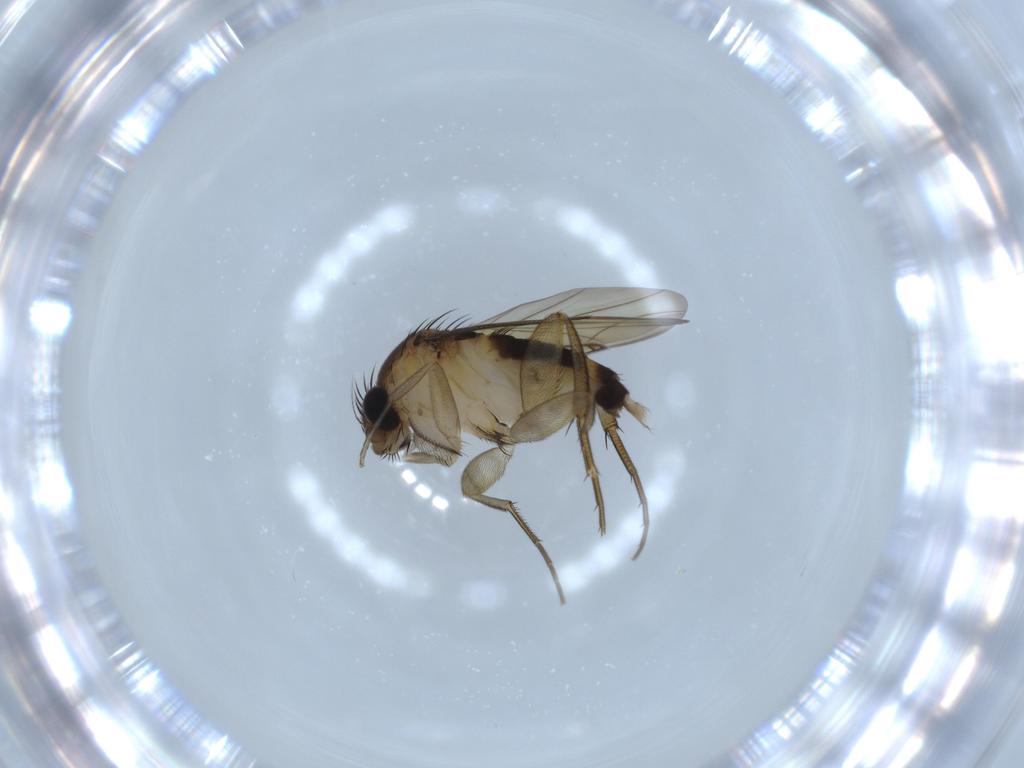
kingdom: Animalia
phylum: Arthropoda
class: Insecta
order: Diptera
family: Phoridae
